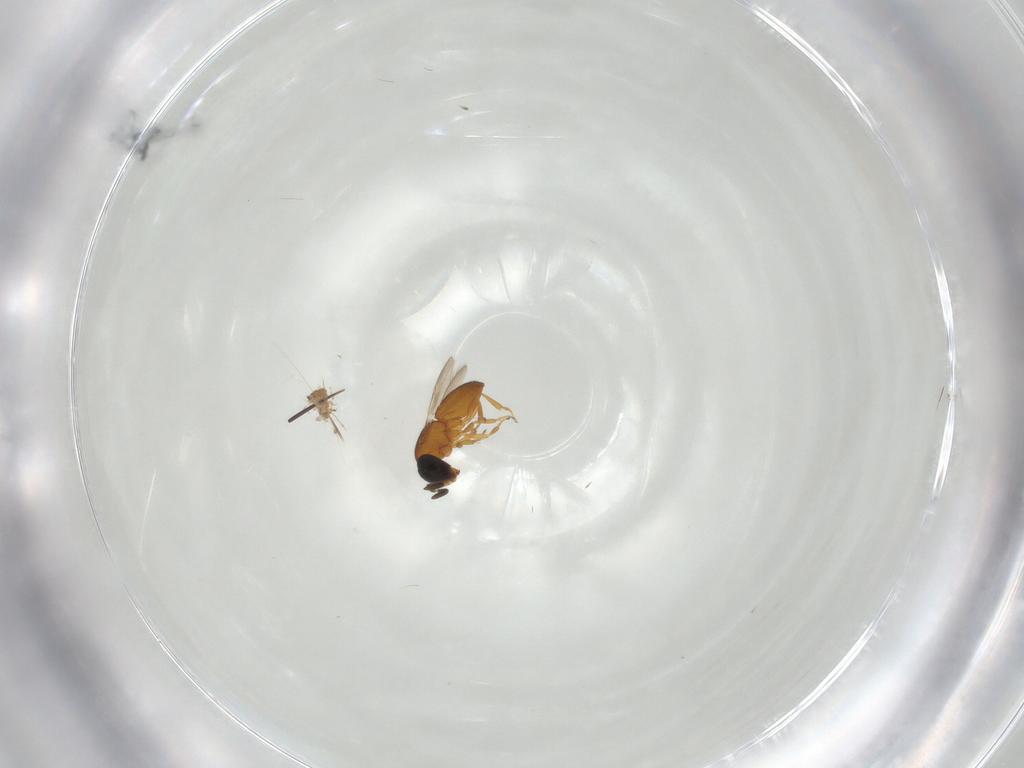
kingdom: Animalia
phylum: Arthropoda
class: Insecta
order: Hymenoptera
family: Scelionidae
